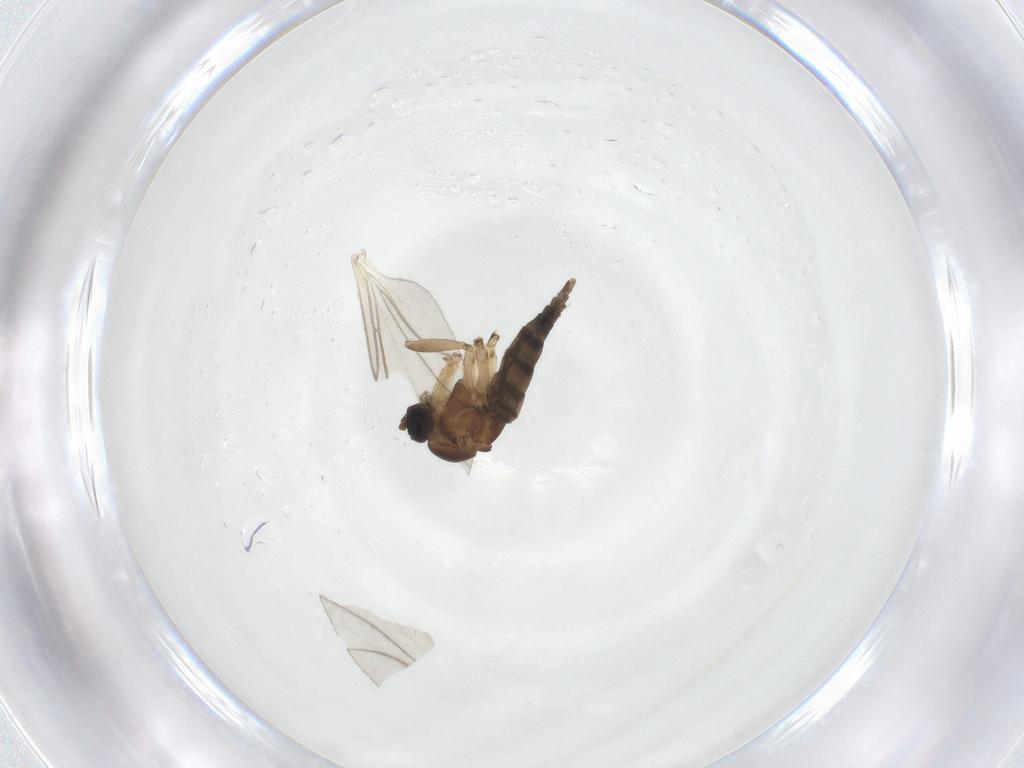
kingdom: Animalia
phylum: Arthropoda
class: Insecta
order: Diptera
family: Sciaridae
